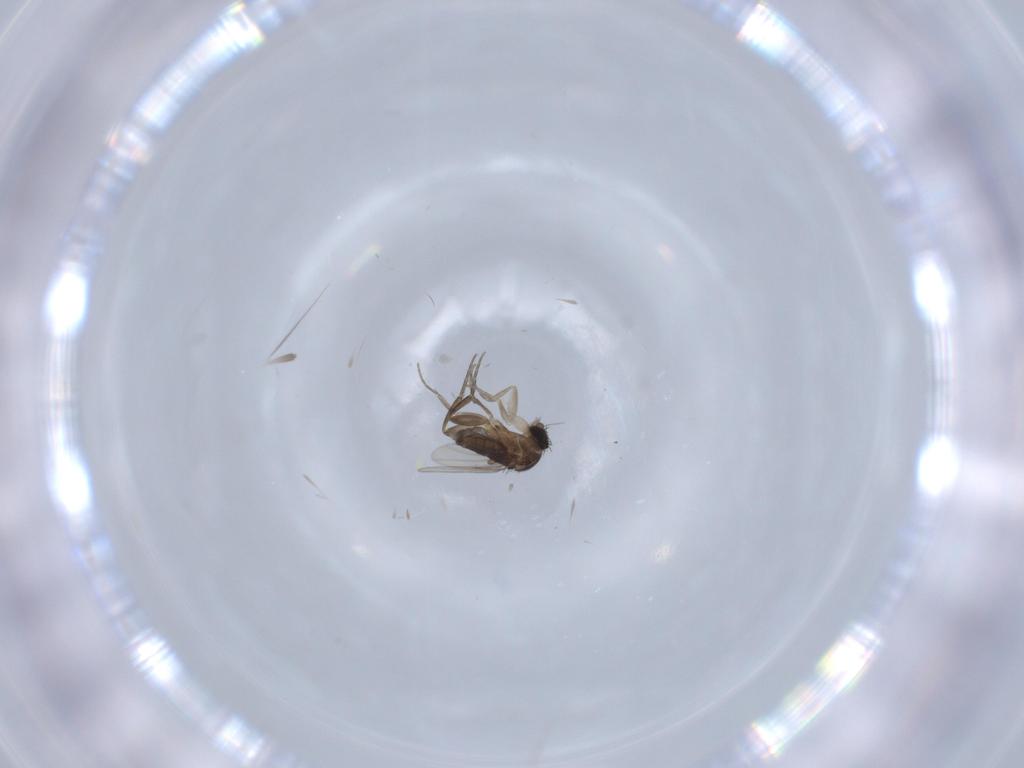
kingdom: Animalia
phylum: Arthropoda
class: Insecta
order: Diptera
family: Phoridae
